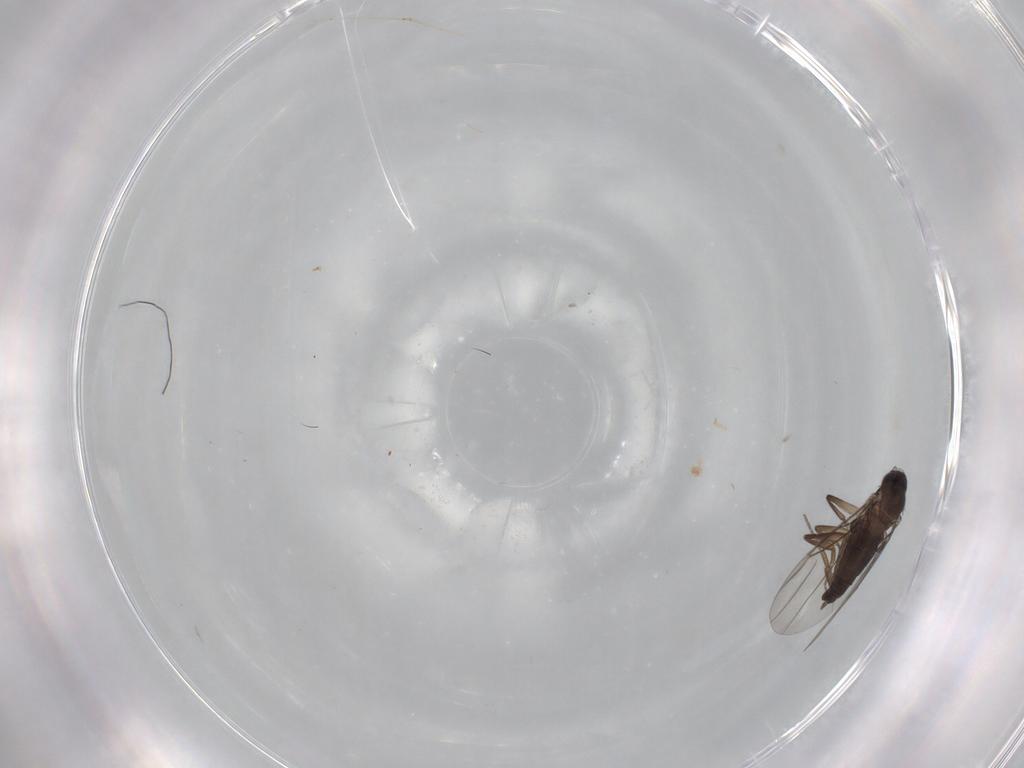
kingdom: Animalia
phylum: Arthropoda
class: Insecta
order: Diptera
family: Phoridae
